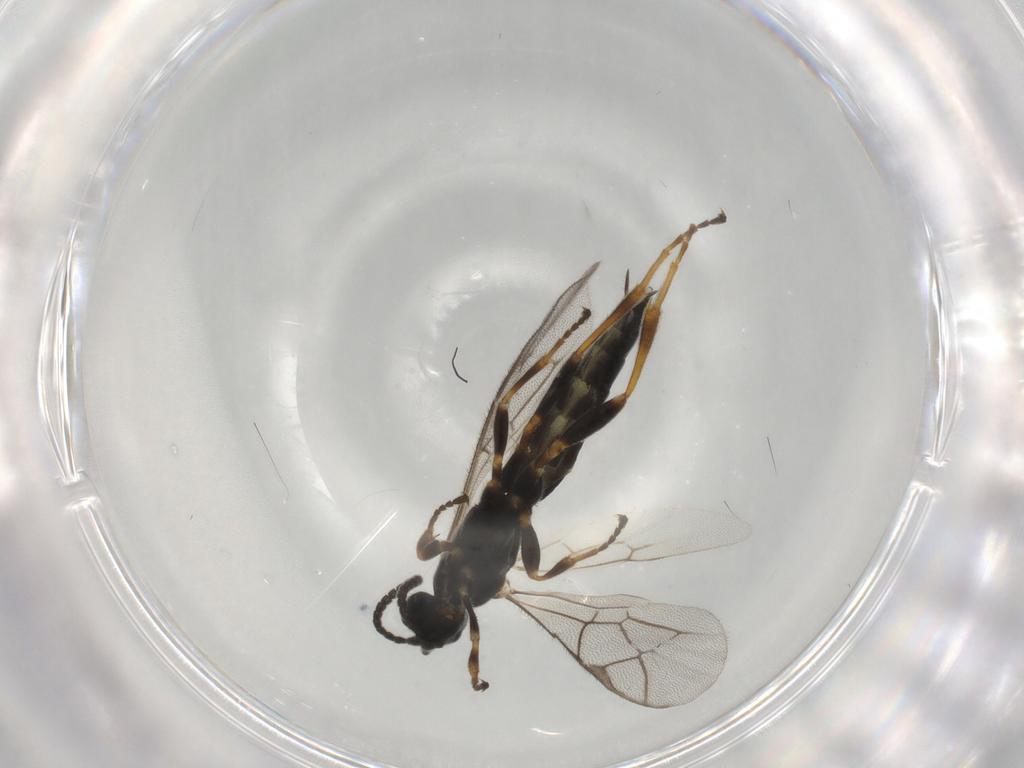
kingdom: Animalia
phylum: Arthropoda
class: Insecta
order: Hymenoptera
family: Ichneumonidae
